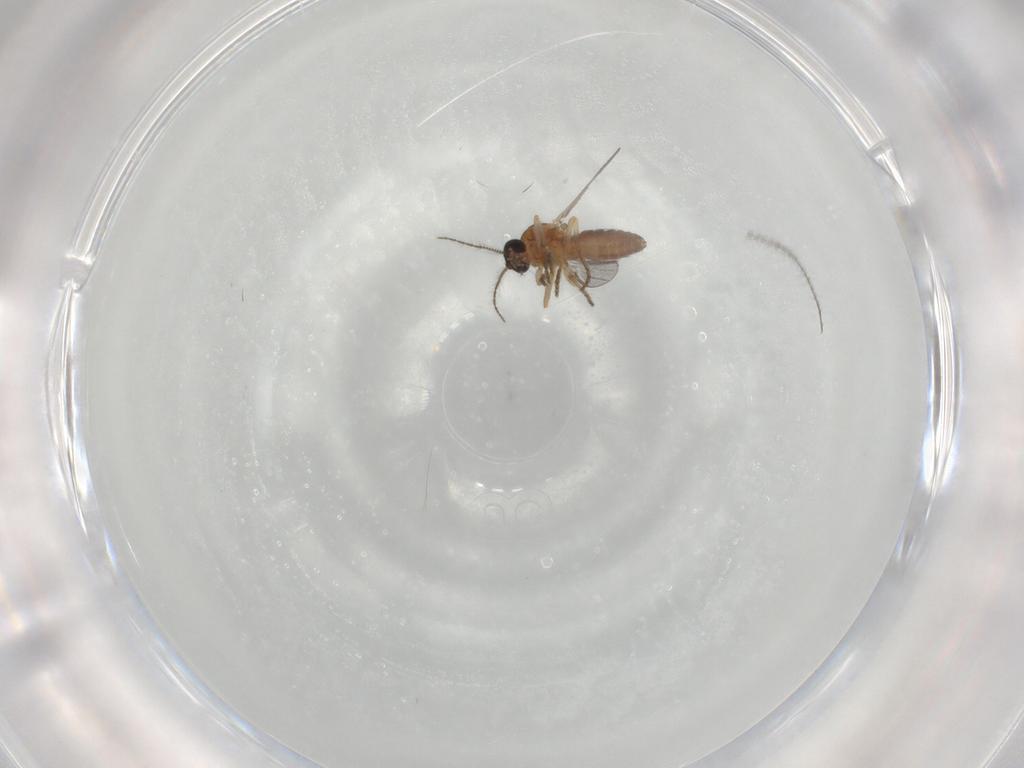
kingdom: Animalia
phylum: Arthropoda
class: Insecta
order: Diptera
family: Ceratopogonidae
